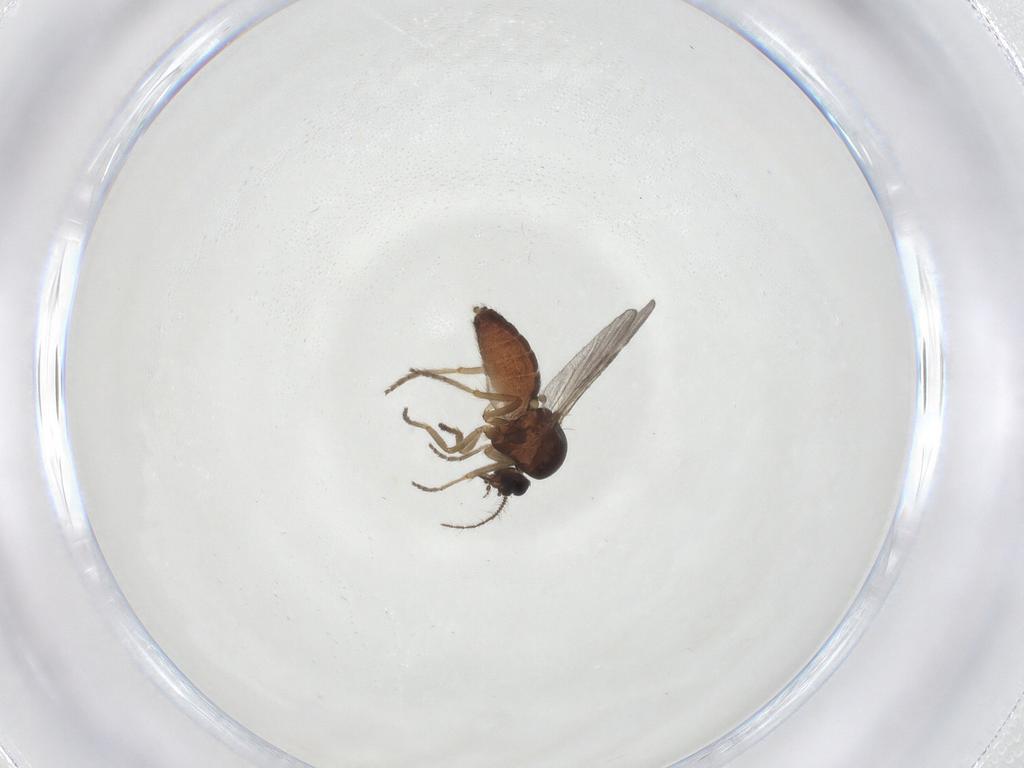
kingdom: Animalia
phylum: Arthropoda
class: Insecta
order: Diptera
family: Ceratopogonidae
